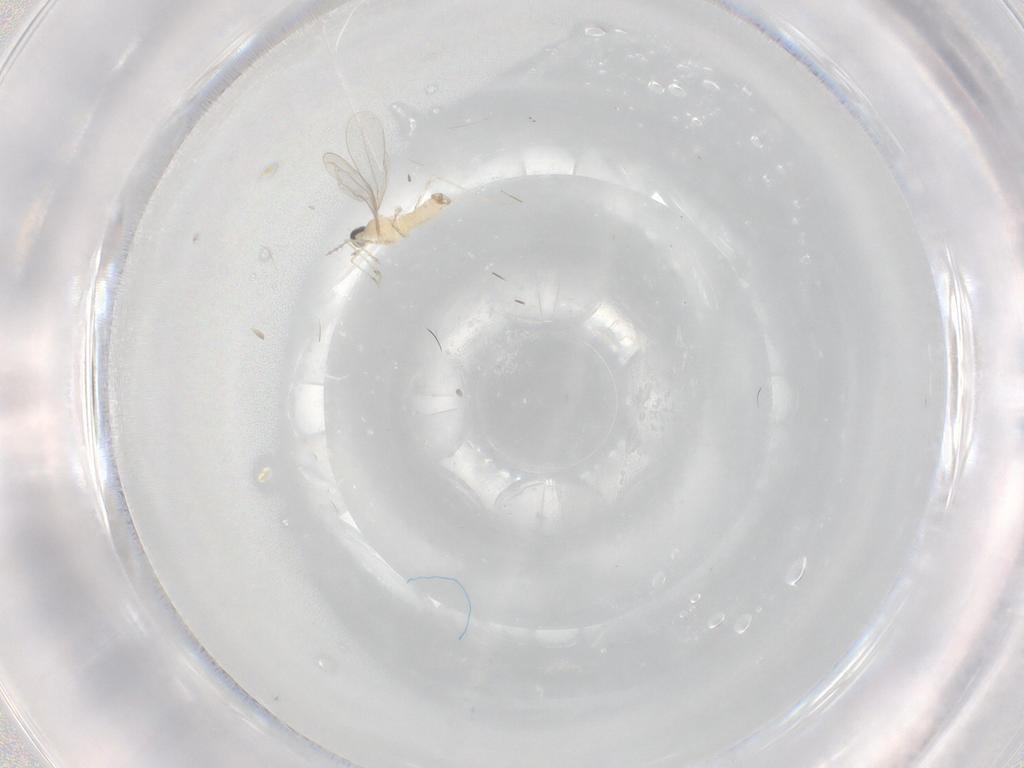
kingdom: Animalia
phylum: Arthropoda
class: Insecta
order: Diptera
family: Cecidomyiidae
